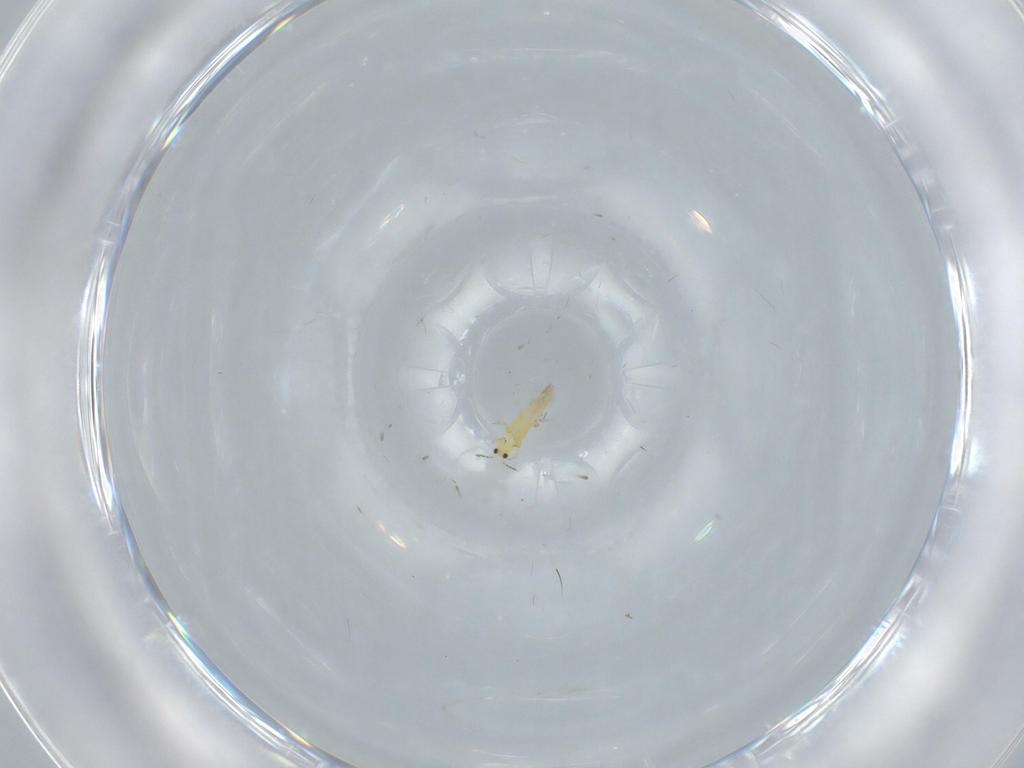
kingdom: Animalia
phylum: Arthropoda
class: Insecta
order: Thysanoptera
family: Thripidae
